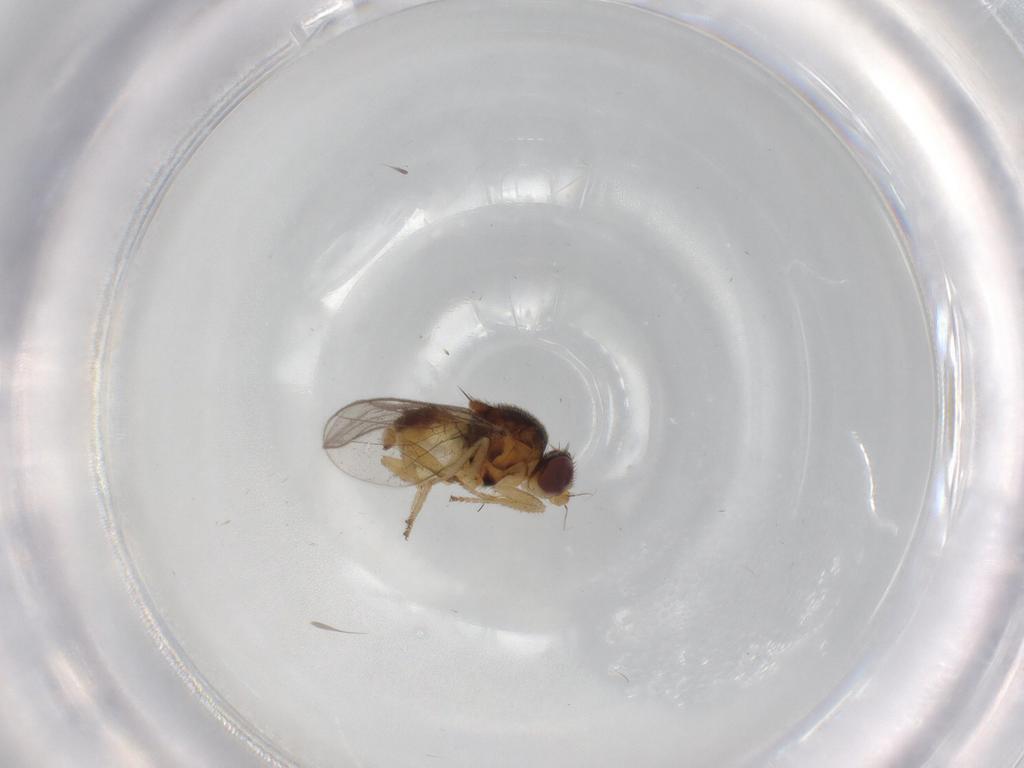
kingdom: Animalia
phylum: Arthropoda
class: Insecta
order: Diptera
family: Chloropidae
